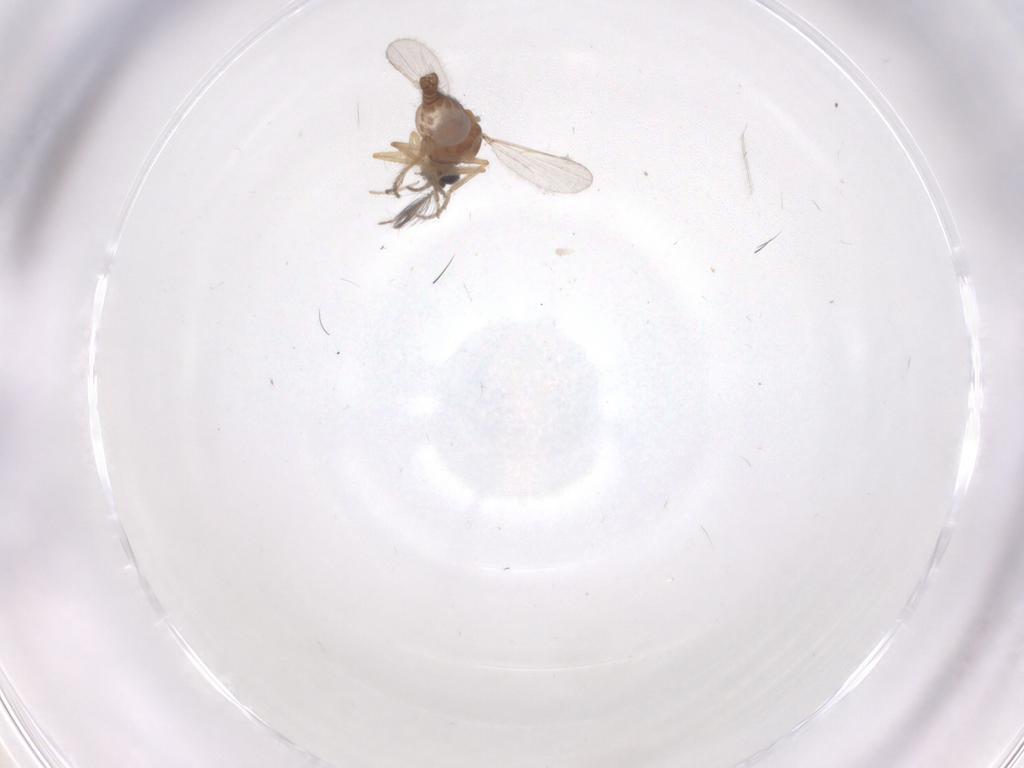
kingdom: Animalia
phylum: Arthropoda
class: Insecta
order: Diptera
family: Ceratopogonidae
